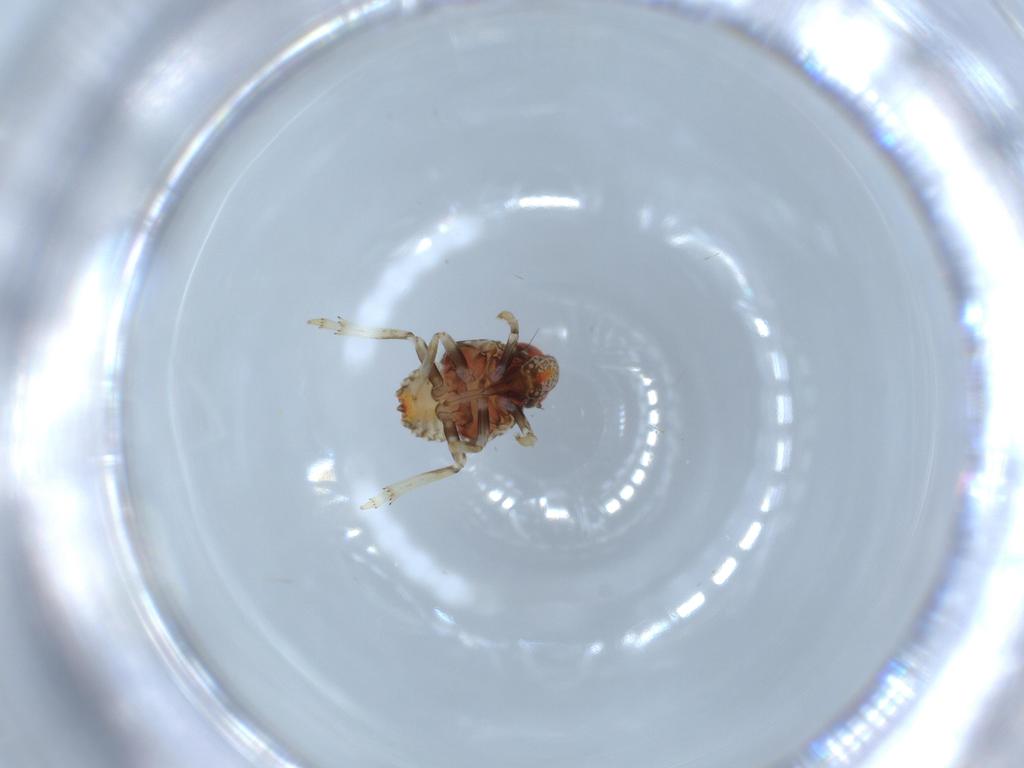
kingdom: Animalia
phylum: Arthropoda
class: Insecta
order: Hemiptera
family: Issidae
